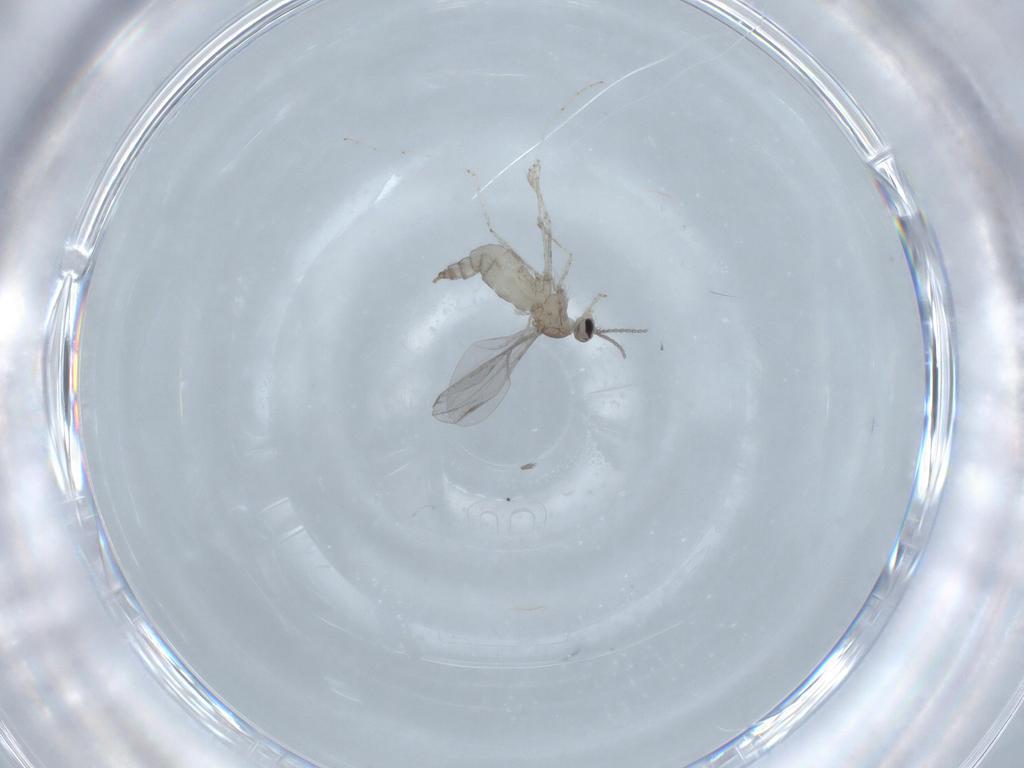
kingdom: Animalia
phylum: Arthropoda
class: Insecta
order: Diptera
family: Cecidomyiidae
